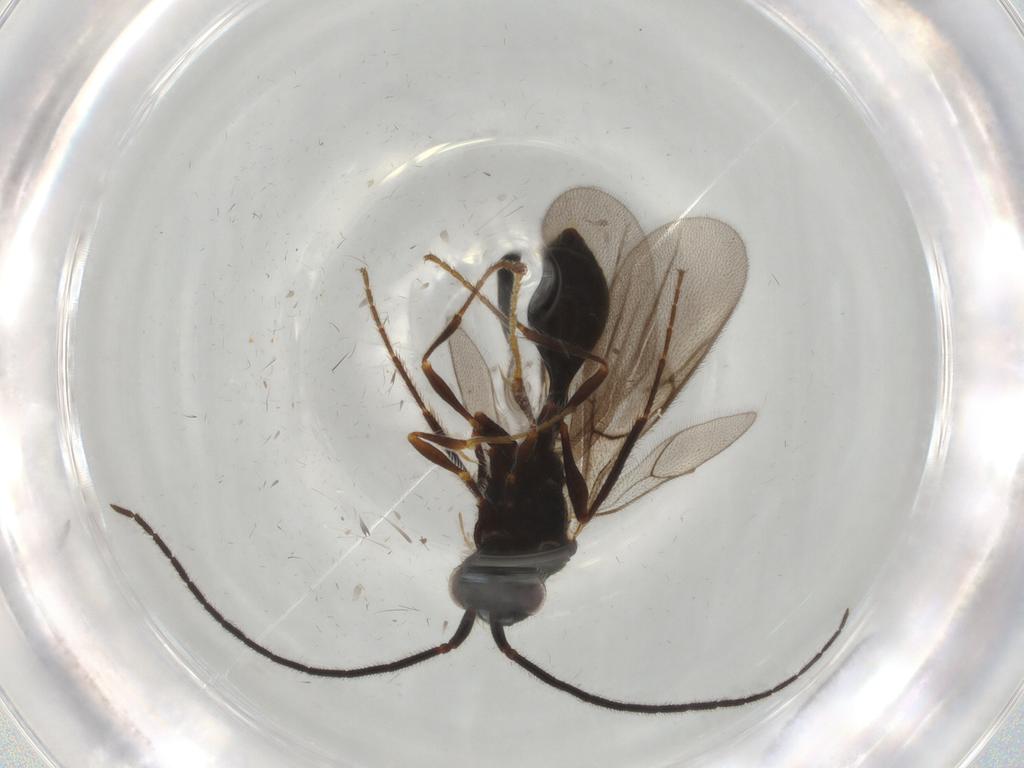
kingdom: Animalia
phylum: Arthropoda
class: Insecta
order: Hymenoptera
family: Diapriidae
